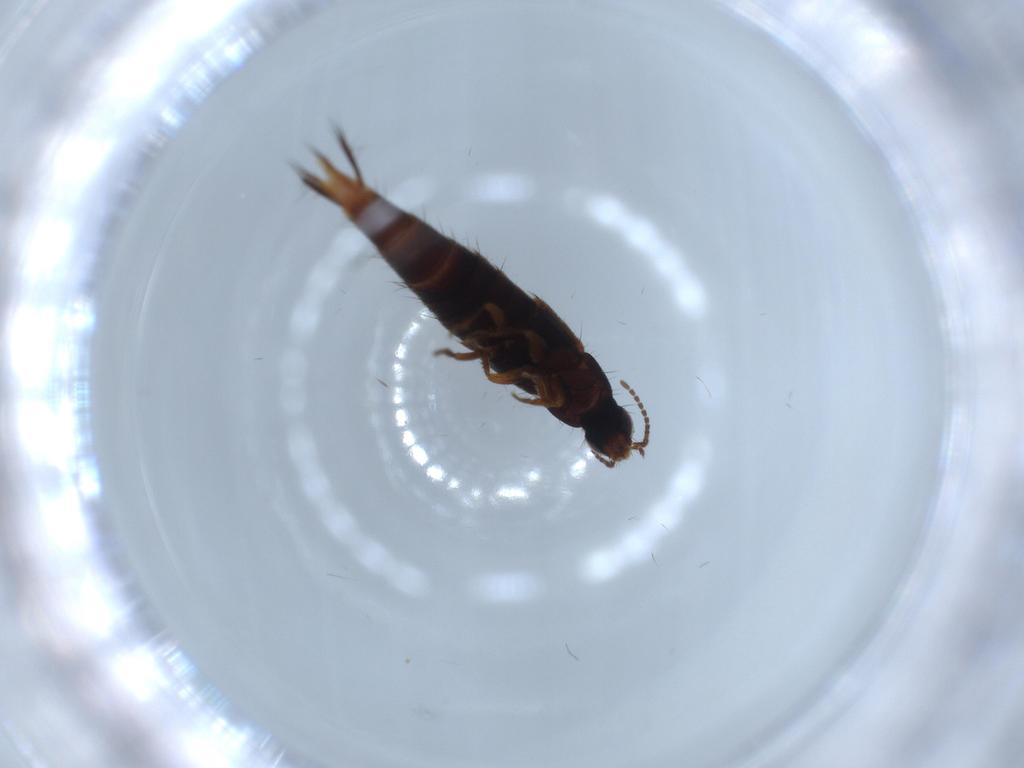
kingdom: Animalia
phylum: Arthropoda
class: Insecta
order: Coleoptera
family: Staphylinidae
